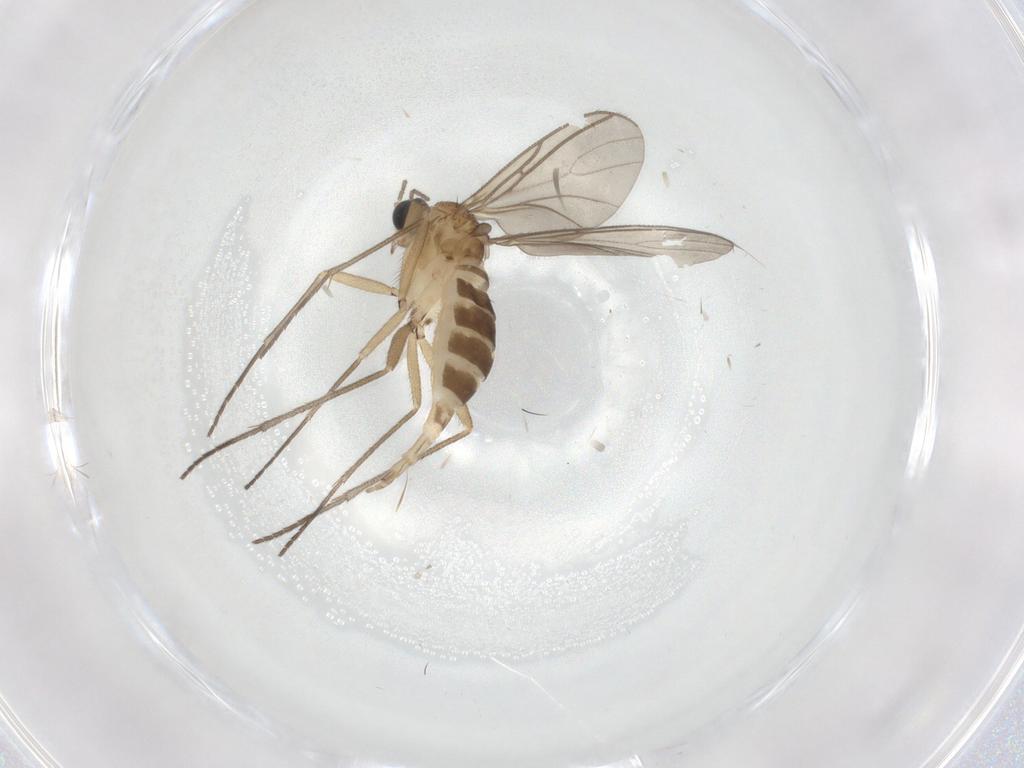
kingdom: Animalia
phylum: Arthropoda
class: Insecta
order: Diptera
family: Sciaridae
